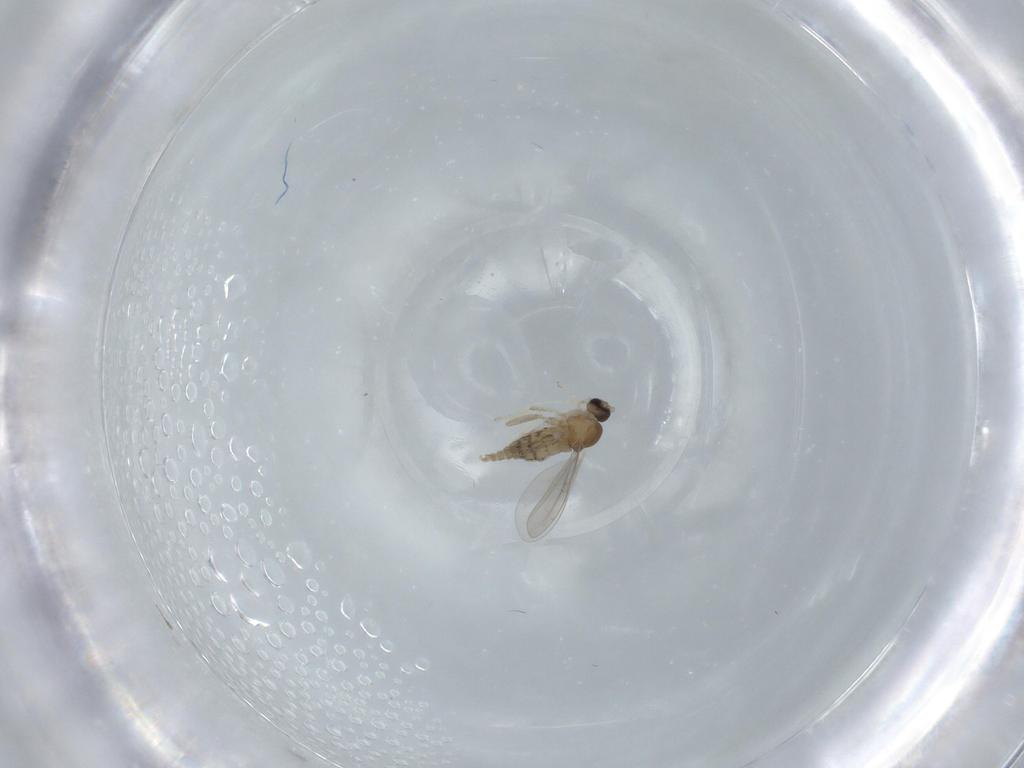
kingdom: Animalia
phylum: Arthropoda
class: Insecta
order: Diptera
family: Cecidomyiidae
